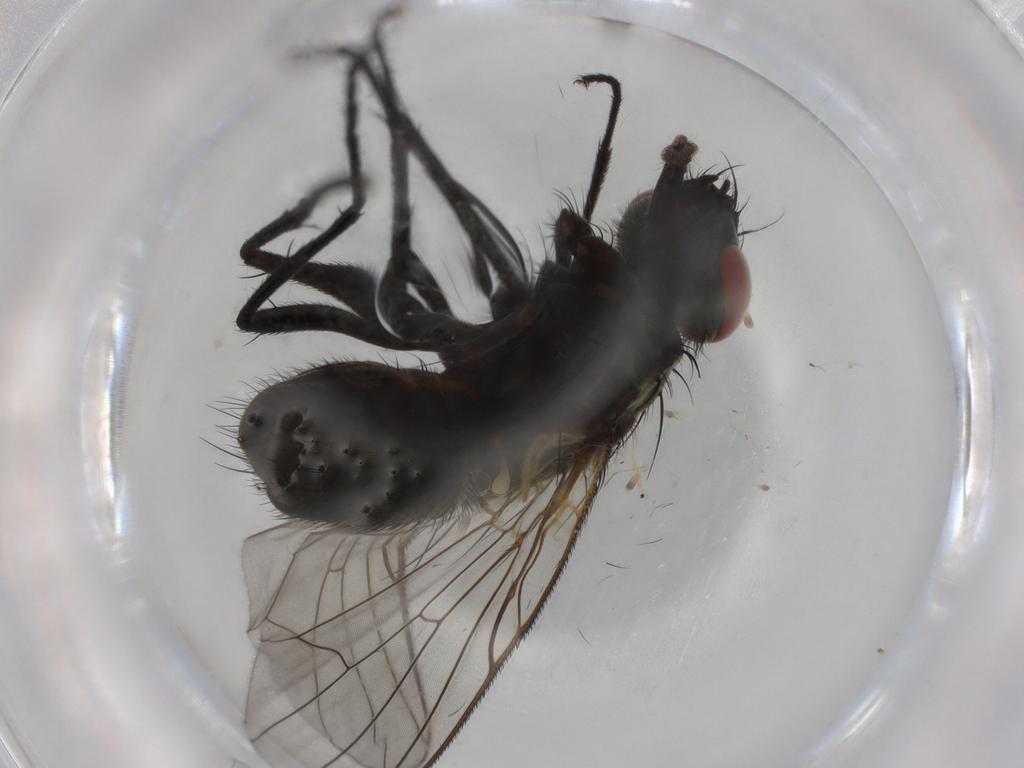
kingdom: Animalia
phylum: Arthropoda
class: Insecta
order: Diptera
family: Muscidae
